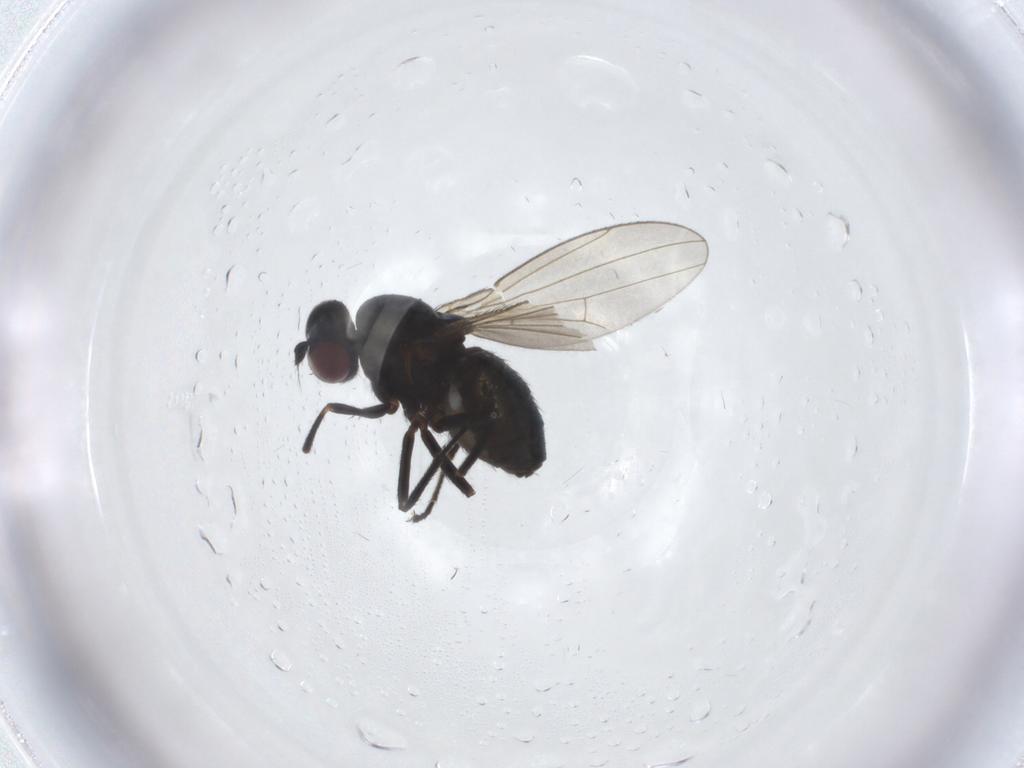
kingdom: Animalia
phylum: Arthropoda
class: Insecta
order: Diptera
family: Ephydridae
